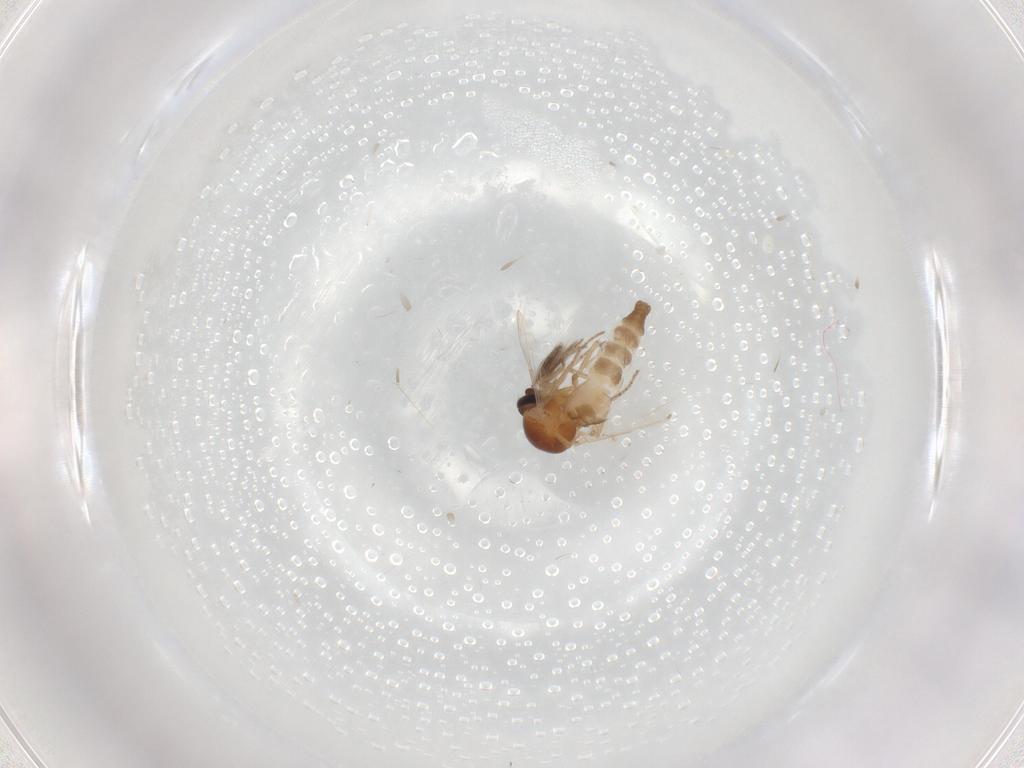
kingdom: Animalia
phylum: Arthropoda
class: Insecta
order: Diptera
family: Ceratopogonidae
